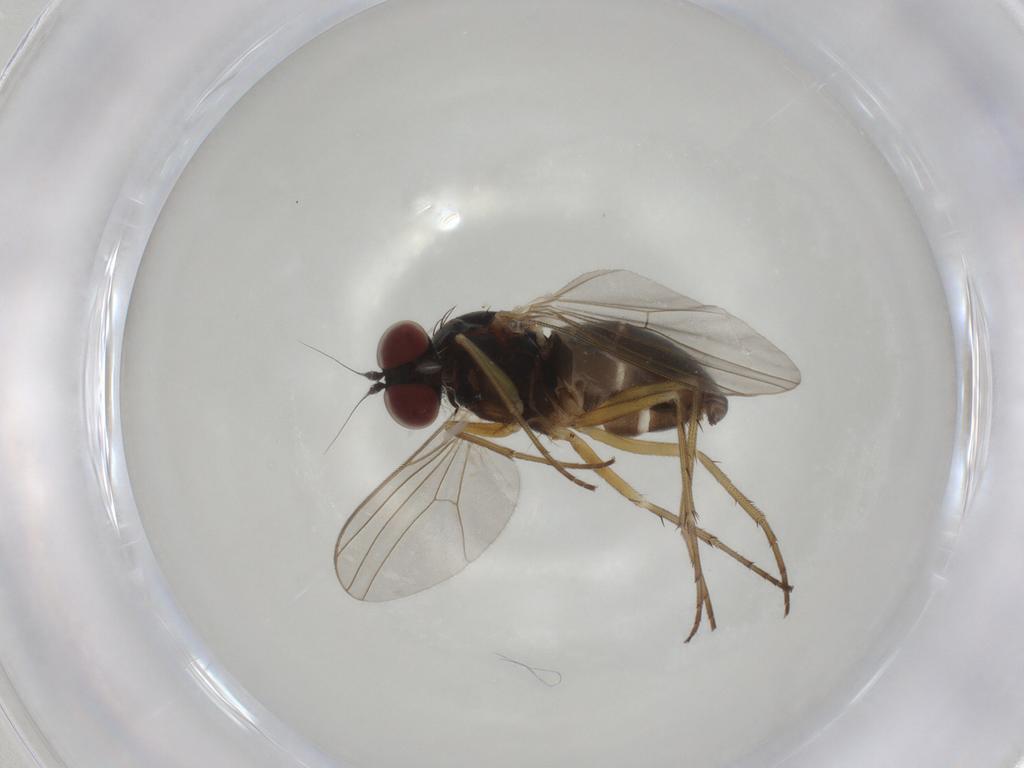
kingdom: Animalia
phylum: Arthropoda
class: Insecta
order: Diptera
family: Dolichopodidae
